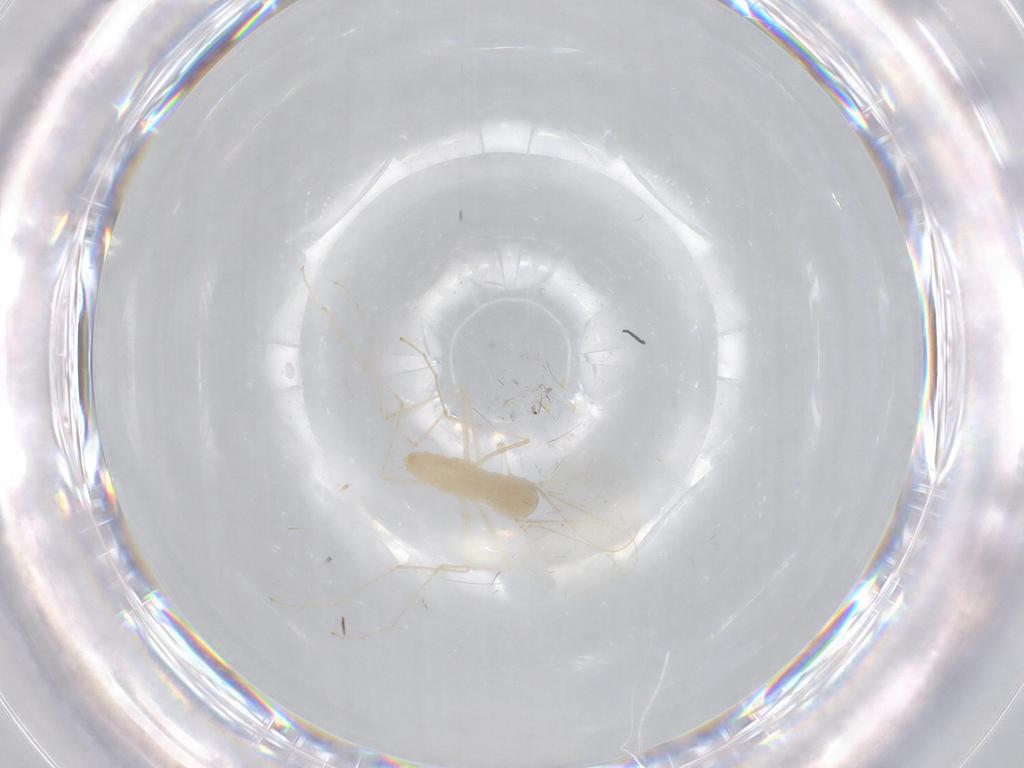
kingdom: Animalia
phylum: Arthropoda
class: Insecta
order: Diptera
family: Cecidomyiidae
